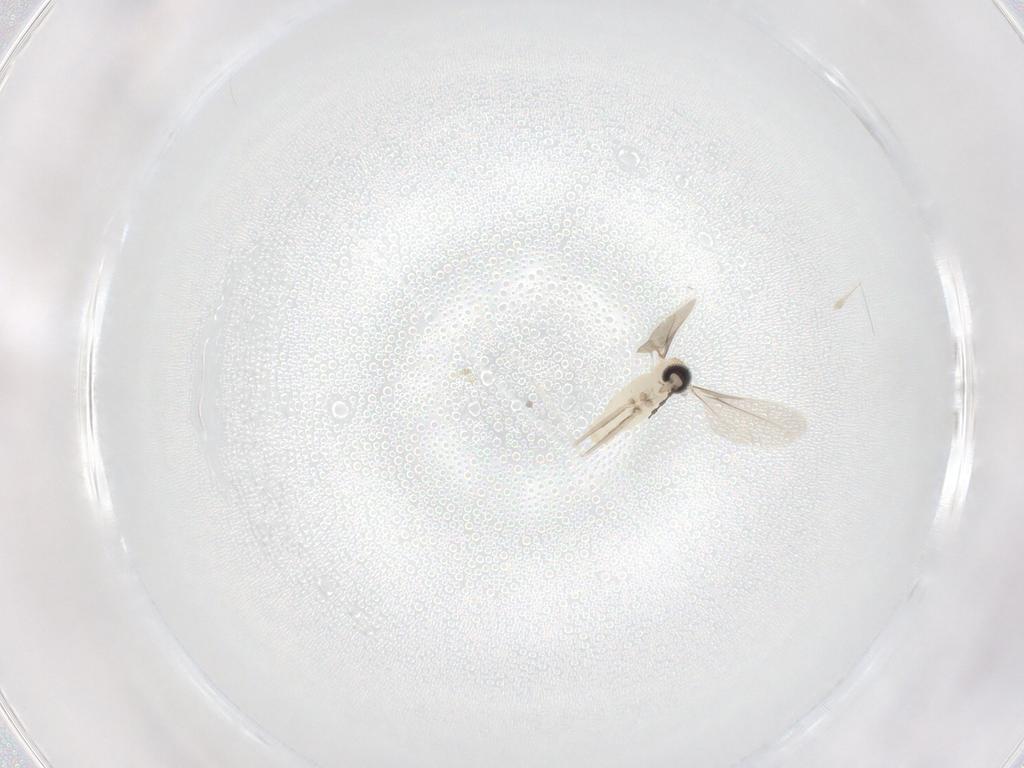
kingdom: Animalia
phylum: Arthropoda
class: Insecta
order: Diptera
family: Cecidomyiidae
